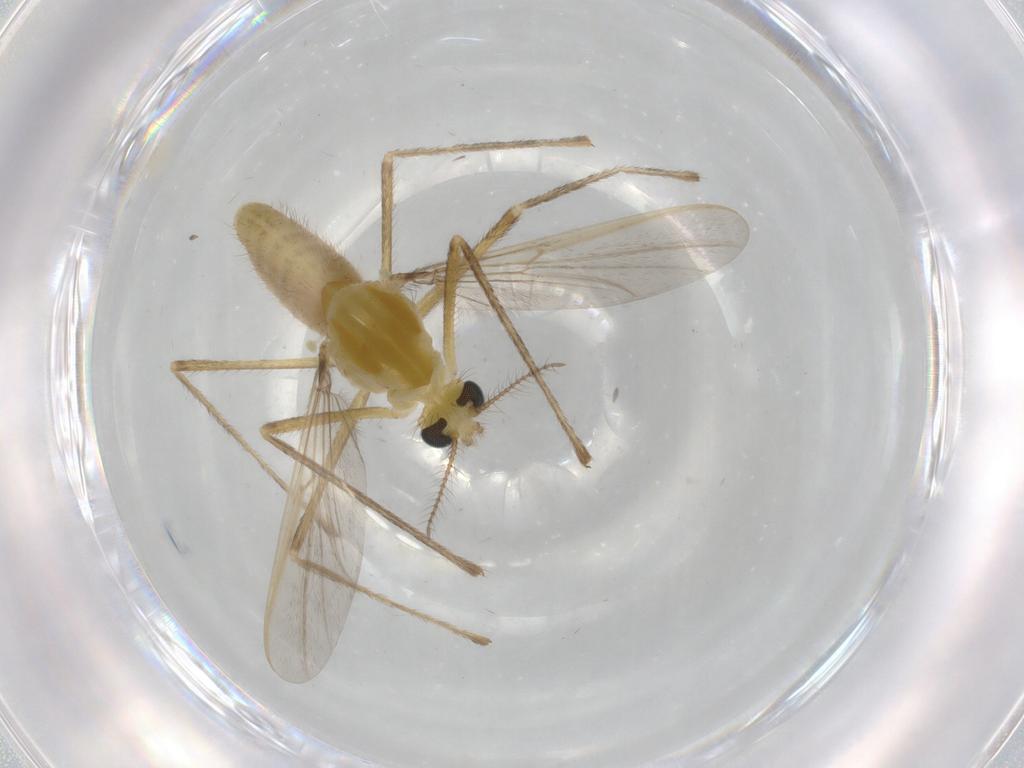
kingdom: Animalia
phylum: Arthropoda
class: Insecta
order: Diptera
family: Chironomidae
